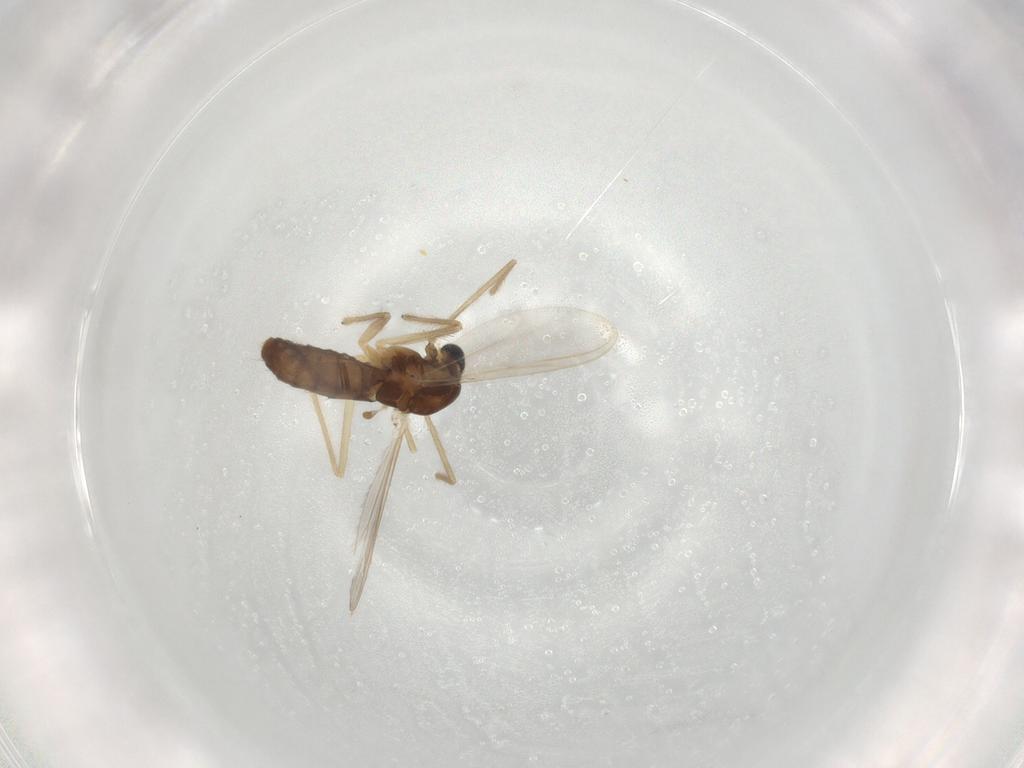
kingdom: Animalia
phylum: Arthropoda
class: Insecta
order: Diptera
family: Chironomidae
